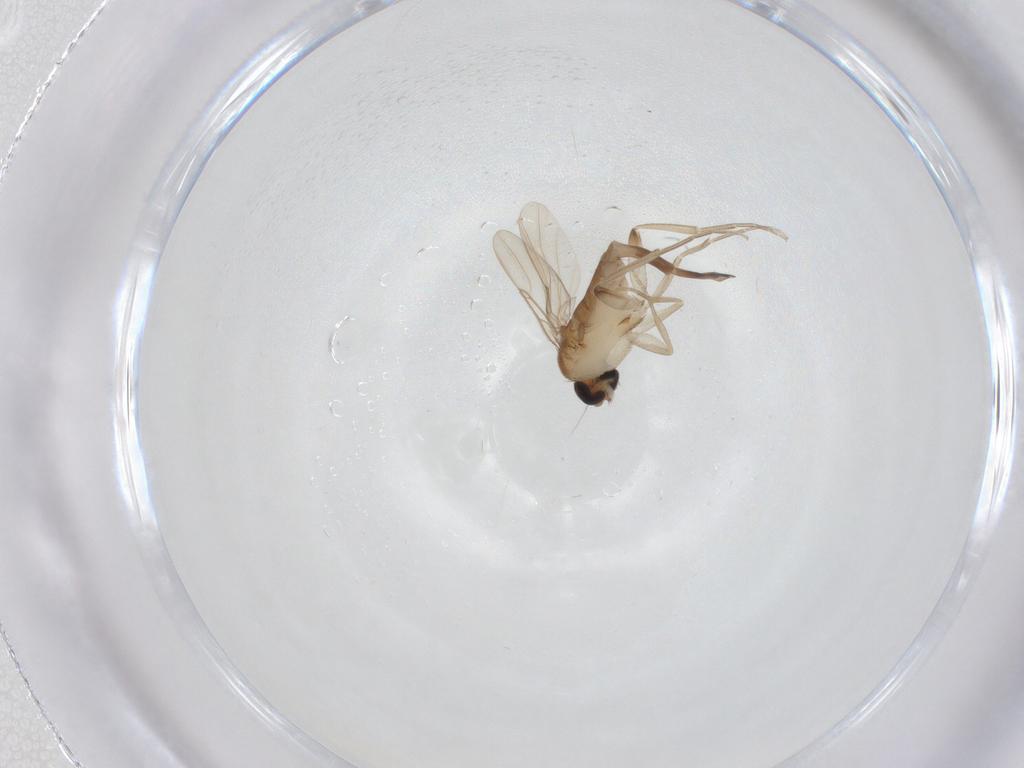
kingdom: Animalia
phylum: Arthropoda
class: Insecta
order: Diptera
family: Phoridae
